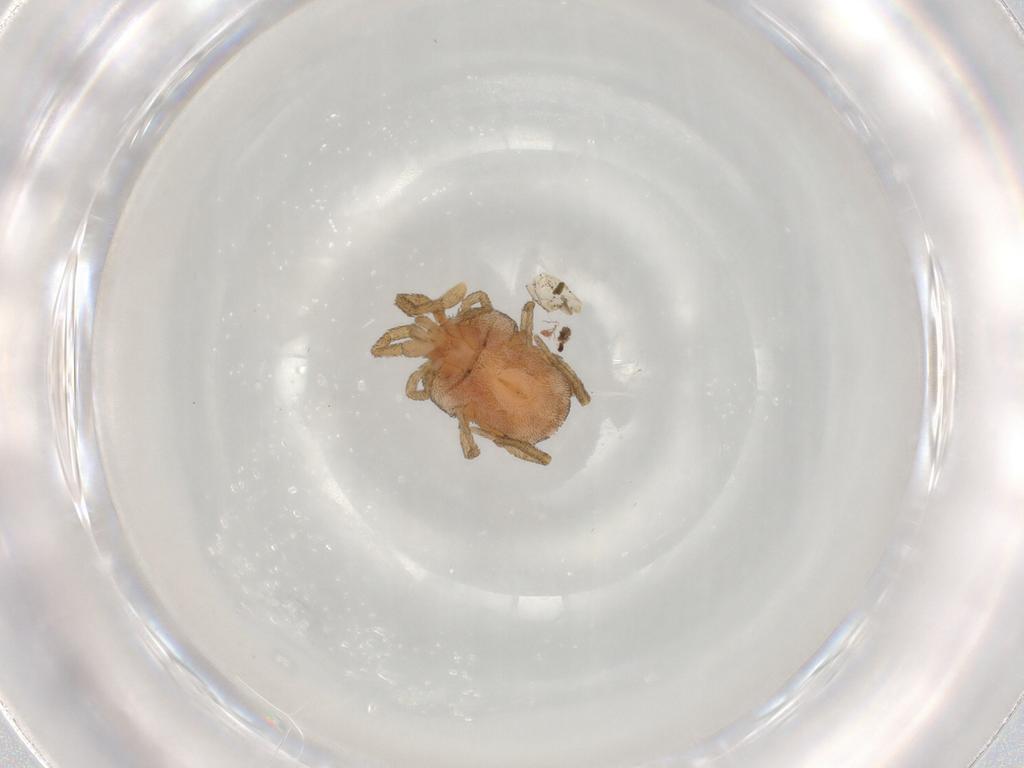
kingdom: Animalia
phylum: Arthropoda
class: Arachnida
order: Trombidiformes
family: Erythraeidae
